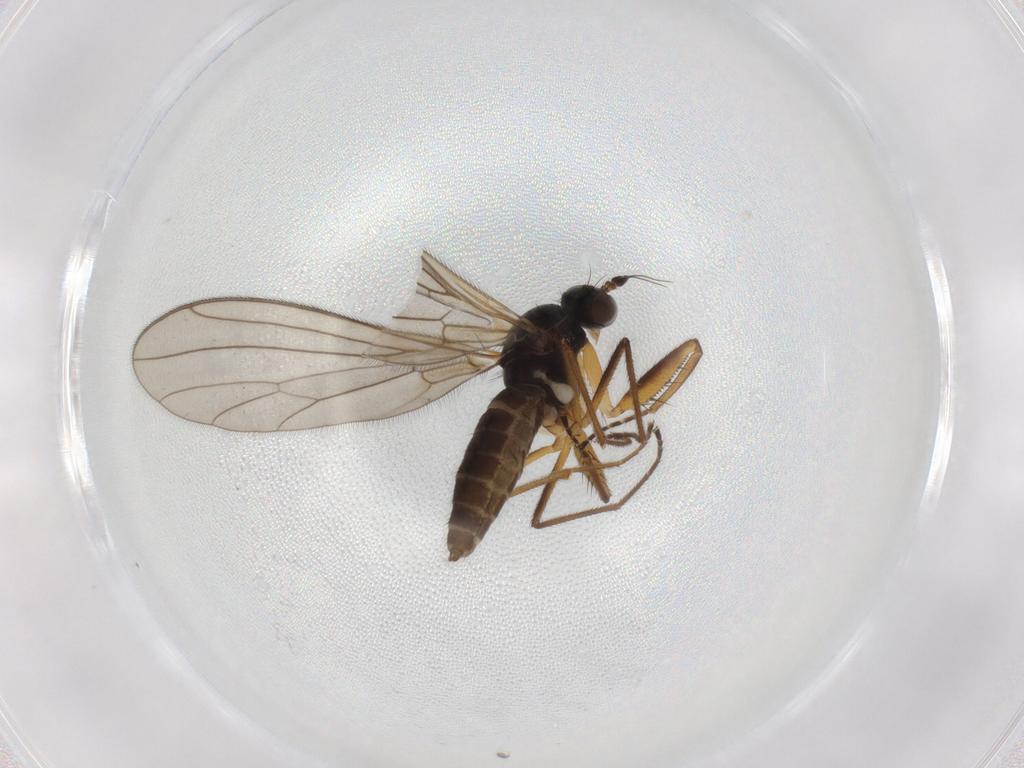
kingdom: Animalia
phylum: Arthropoda
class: Insecta
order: Diptera
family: Empididae
